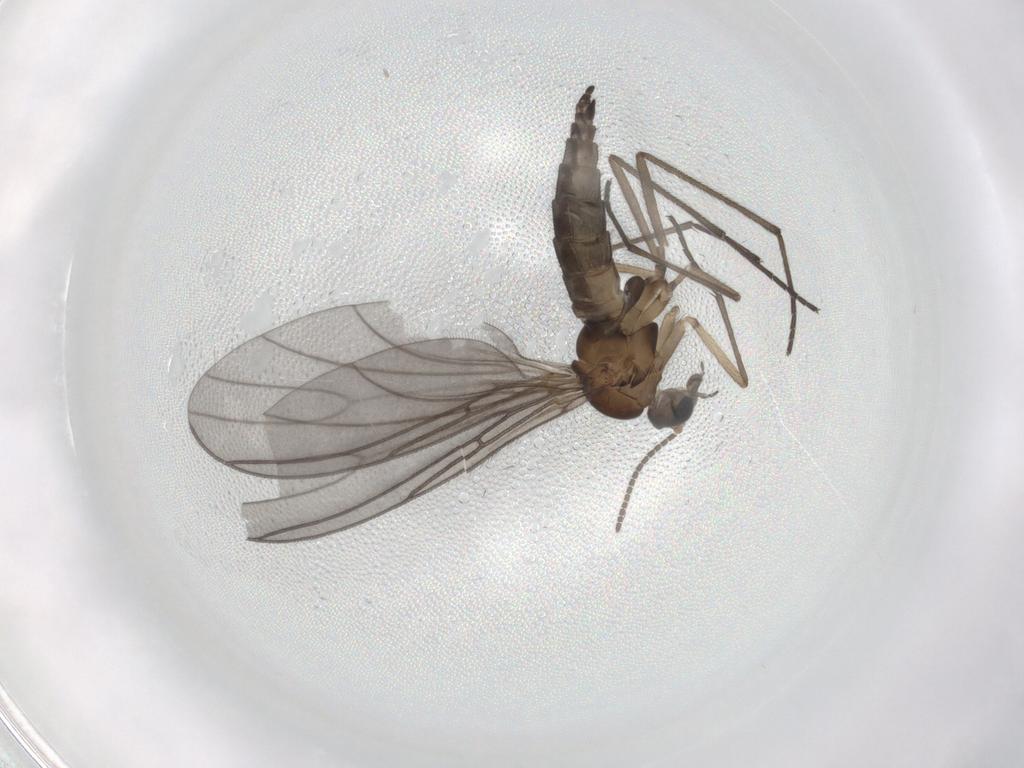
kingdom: Animalia
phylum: Arthropoda
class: Insecta
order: Diptera
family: Sciaridae
